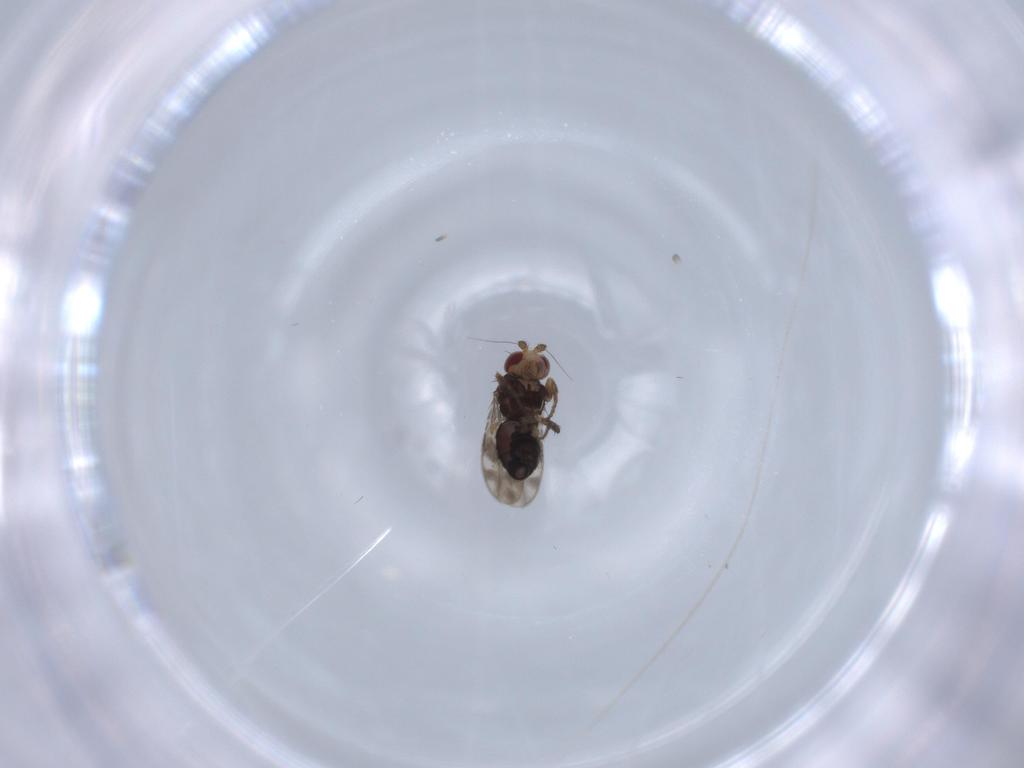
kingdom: Animalia
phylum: Arthropoda
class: Insecta
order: Diptera
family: Sphaeroceridae
